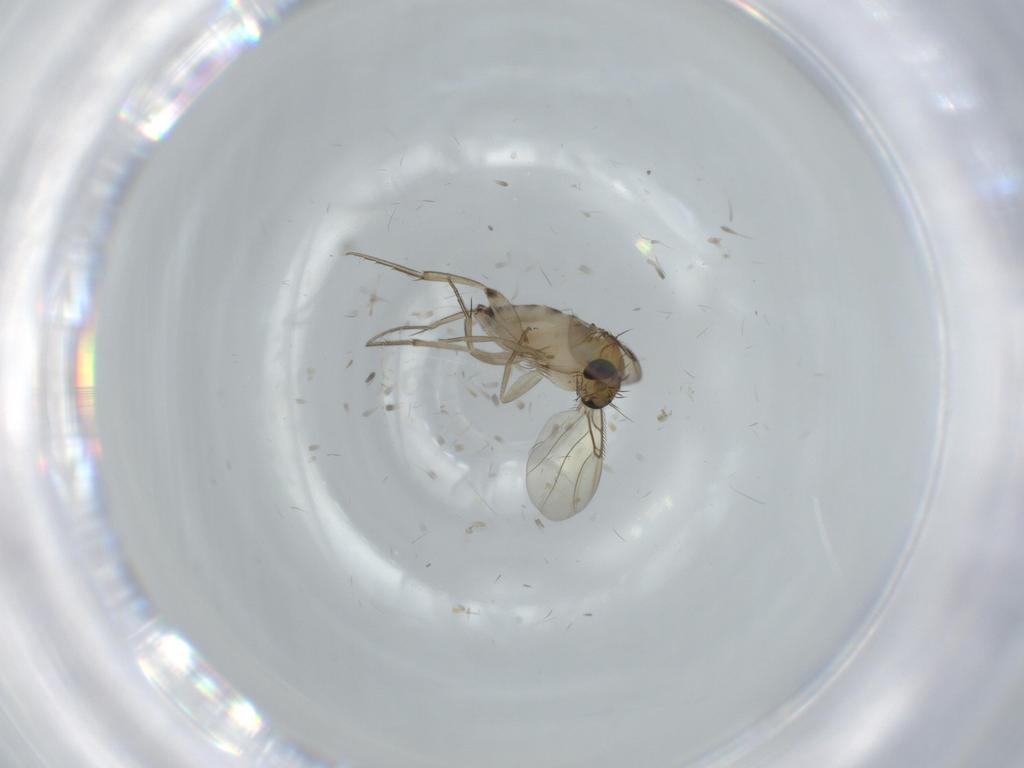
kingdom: Animalia
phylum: Arthropoda
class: Insecta
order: Diptera
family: Phoridae
